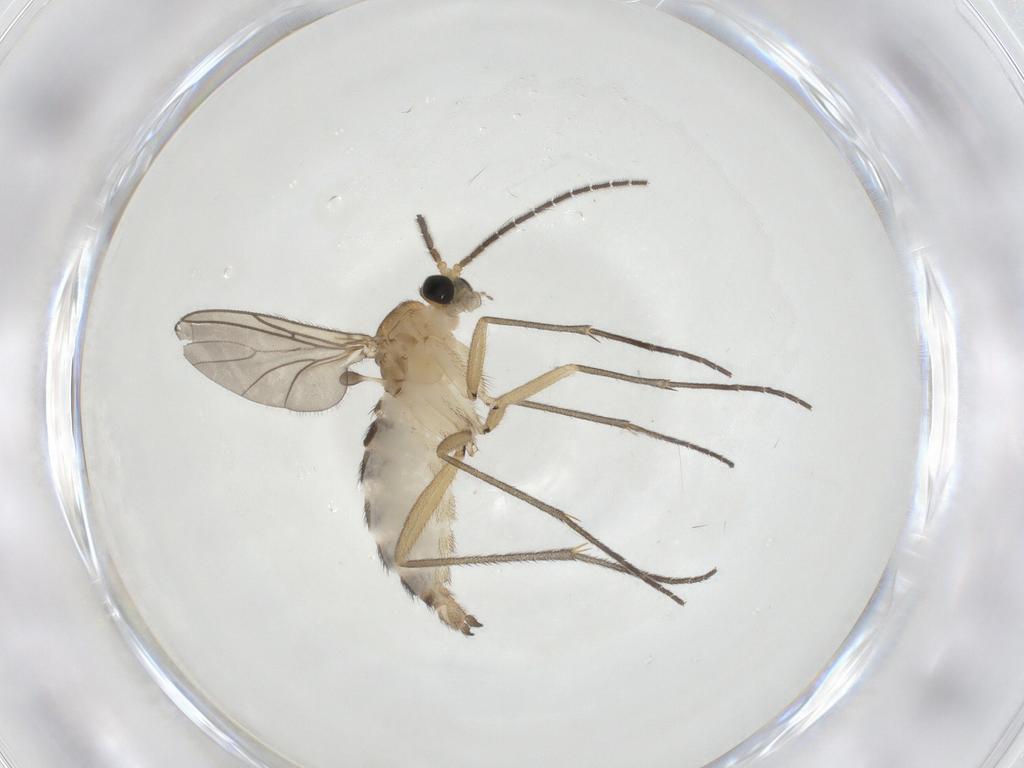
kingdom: Animalia
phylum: Arthropoda
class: Insecta
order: Diptera
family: Sciaridae
